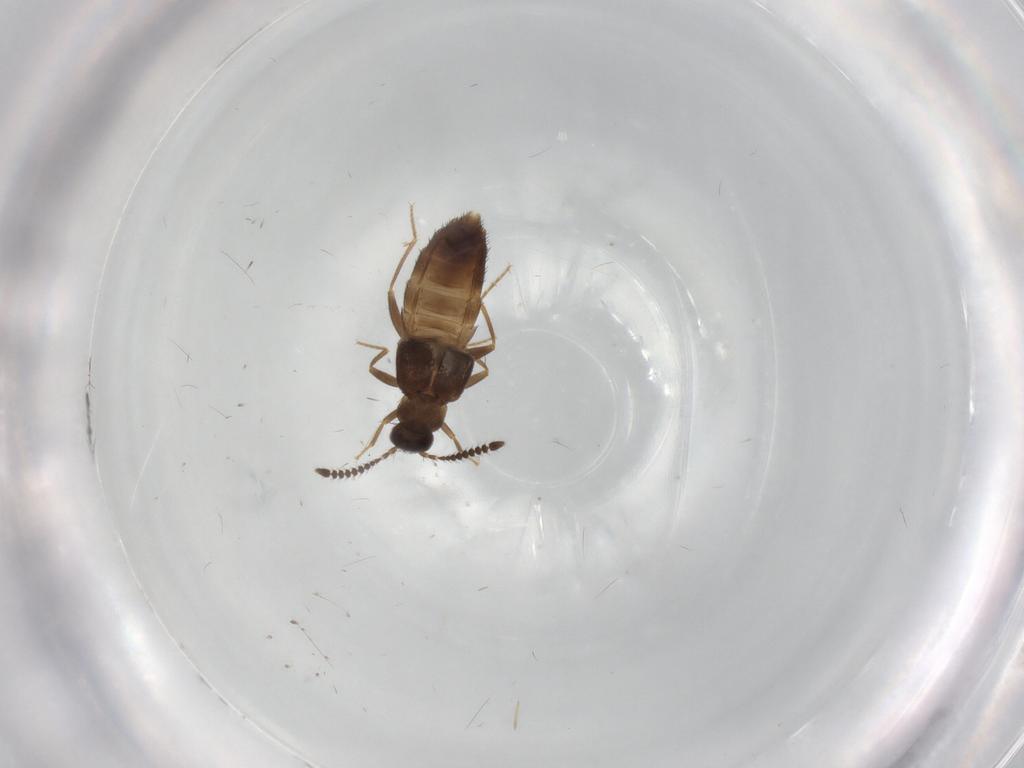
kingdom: Animalia
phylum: Arthropoda
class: Insecta
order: Coleoptera
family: Staphylinidae
